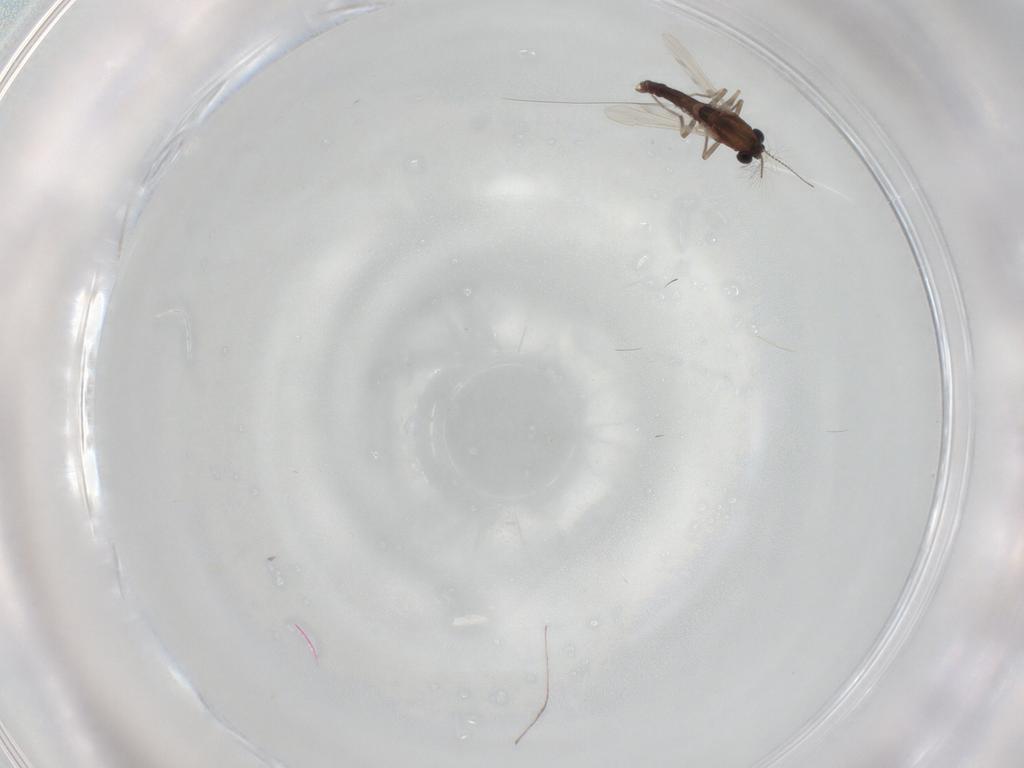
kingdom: Animalia
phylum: Arthropoda
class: Insecta
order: Diptera
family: Chironomidae
